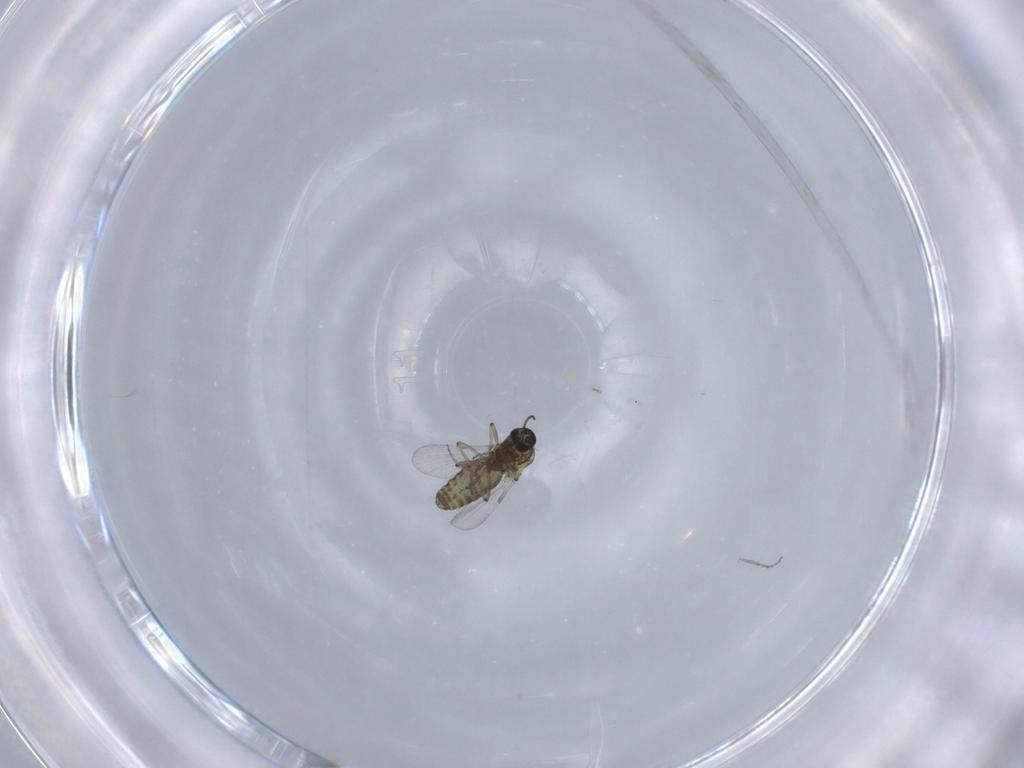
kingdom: Animalia
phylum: Arthropoda
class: Insecta
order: Diptera
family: Ceratopogonidae
